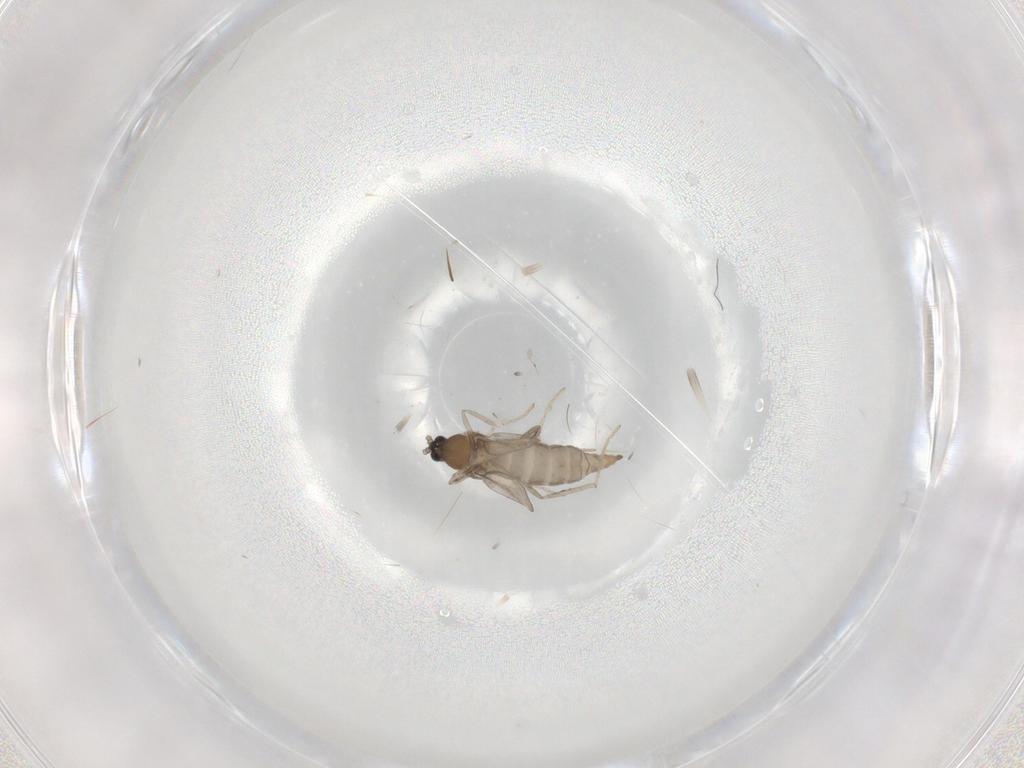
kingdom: Animalia
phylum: Arthropoda
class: Insecta
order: Diptera
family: Cecidomyiidae
